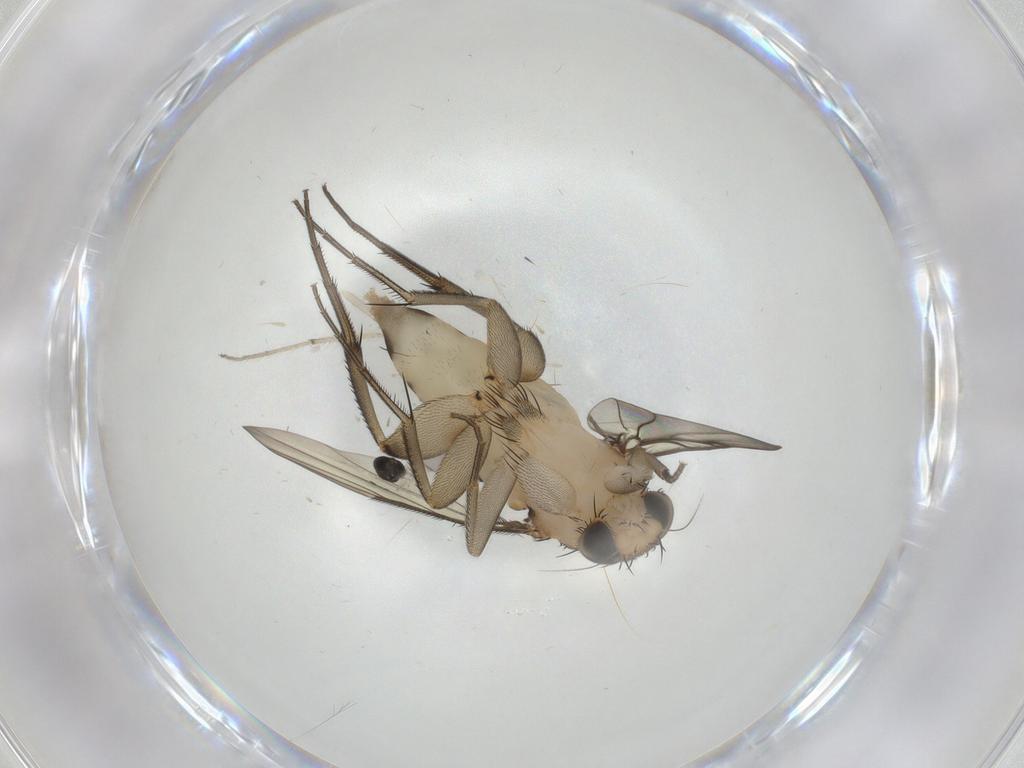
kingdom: Animalia
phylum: Arthropoda
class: Insecta
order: Diptera
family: Phoridae
